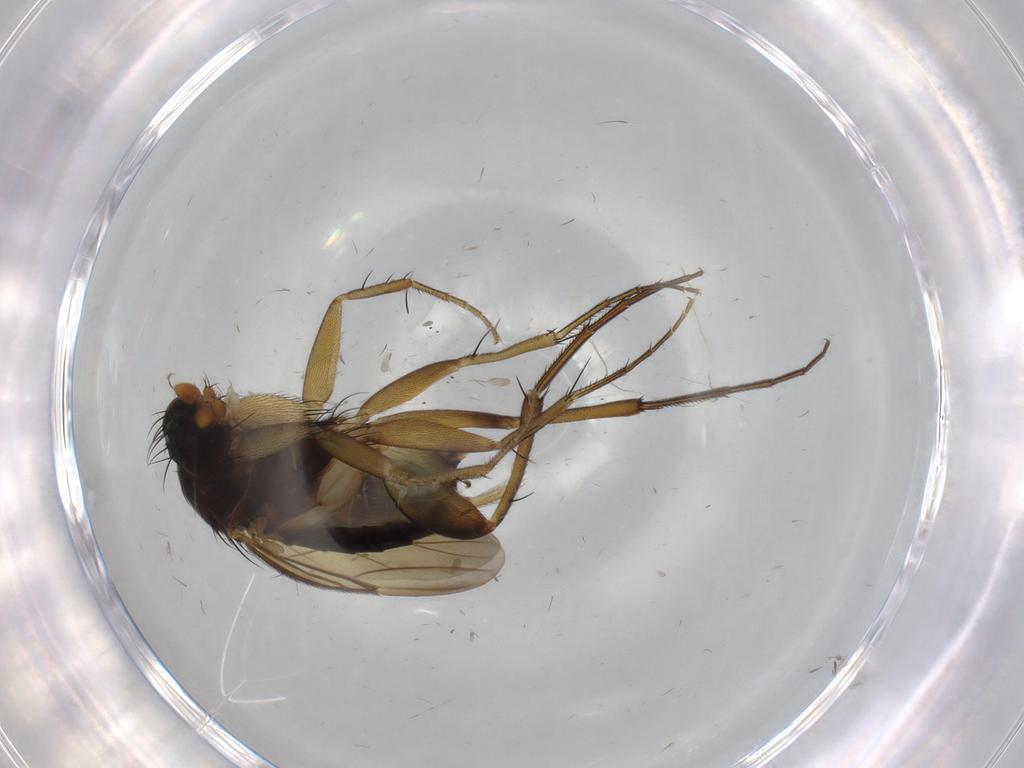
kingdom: Animalia
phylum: Arthropoda
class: Insecta
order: Diptera
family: Phoridae
